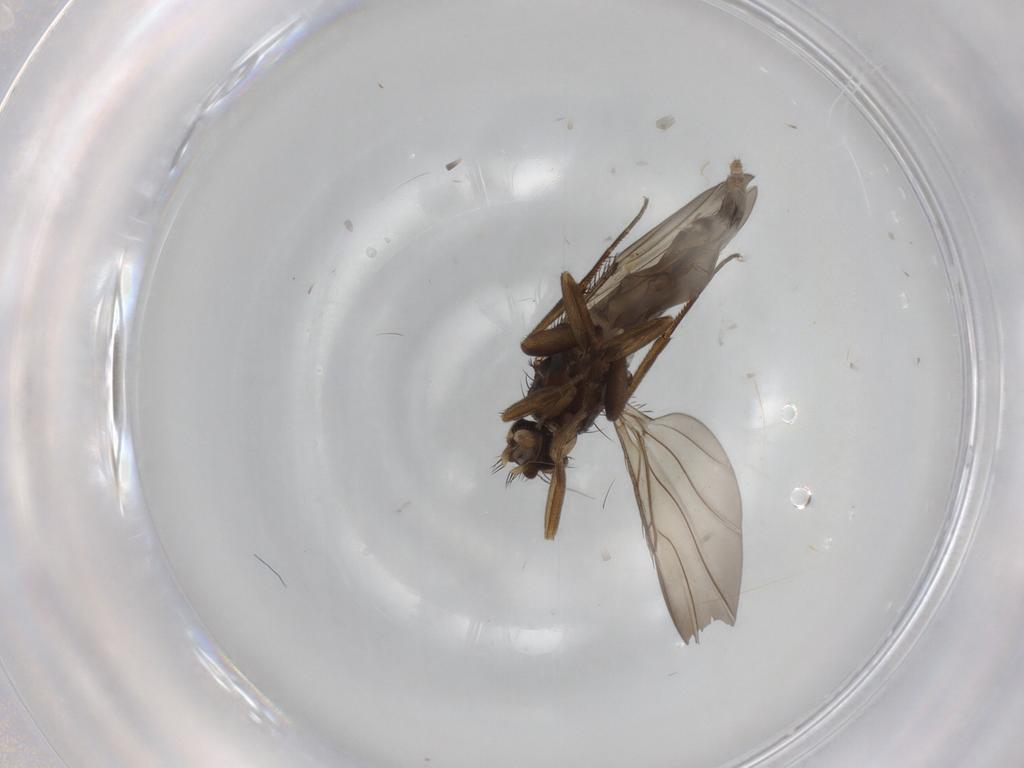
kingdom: Animalia
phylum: Arthropoda
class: Insecta
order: Diptera
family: Phoridae
